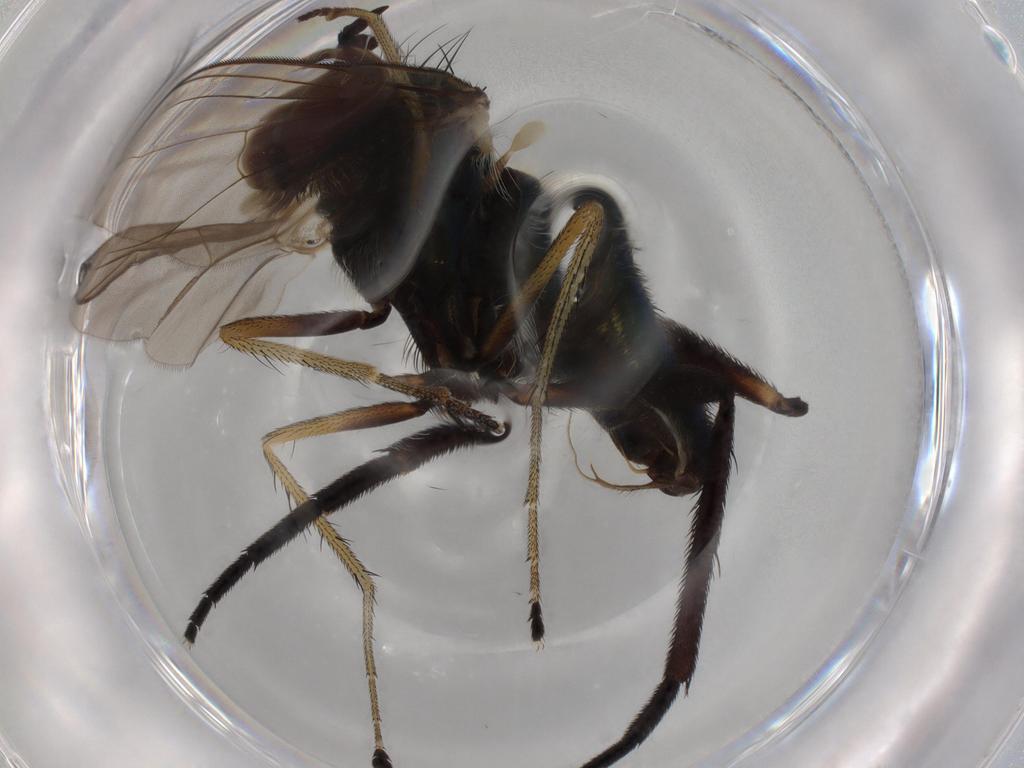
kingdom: Animalia
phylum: Arthropoda
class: Insecta
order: Diptera
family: Dolichopodidae
